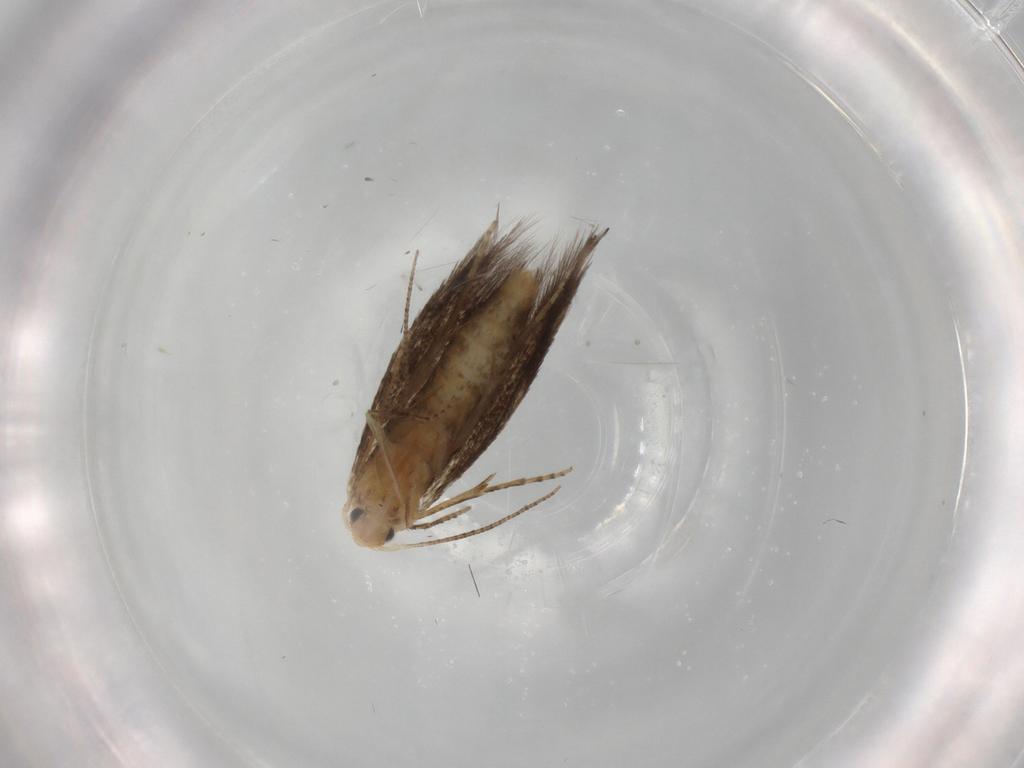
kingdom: Animalia
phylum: Arthropoda
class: Insecta
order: Lepidoptera
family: Bucculatricidae
